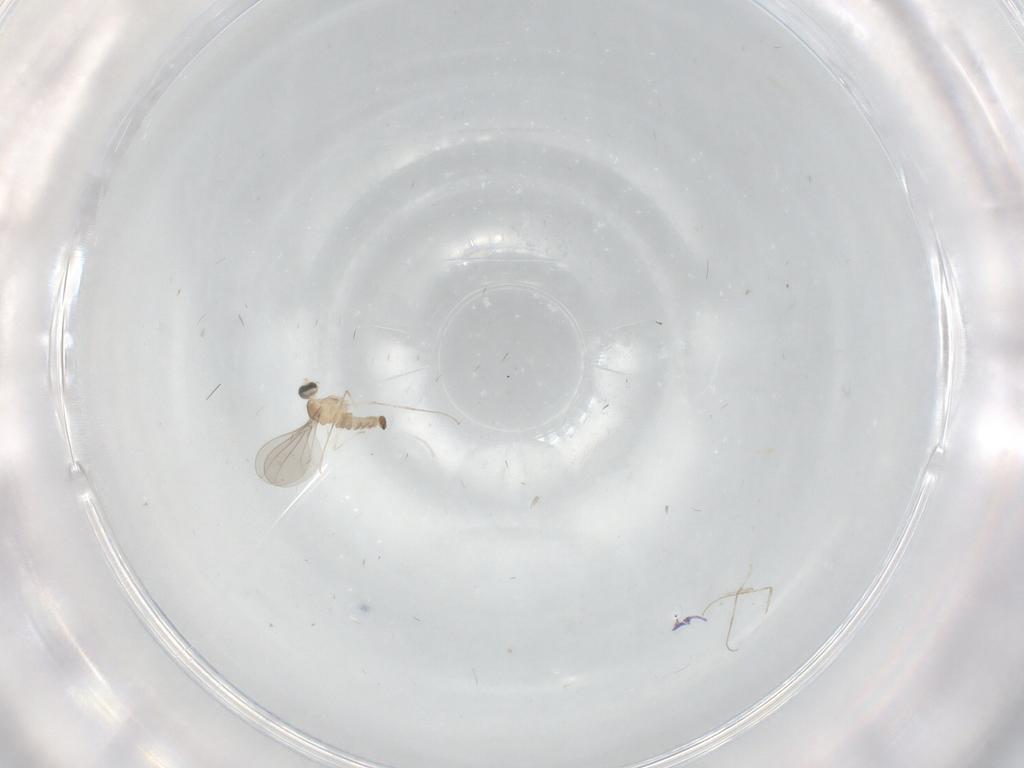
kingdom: Animalia
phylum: Arthropoda
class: Insecta
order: Diptera
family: Cecidomyiidae
